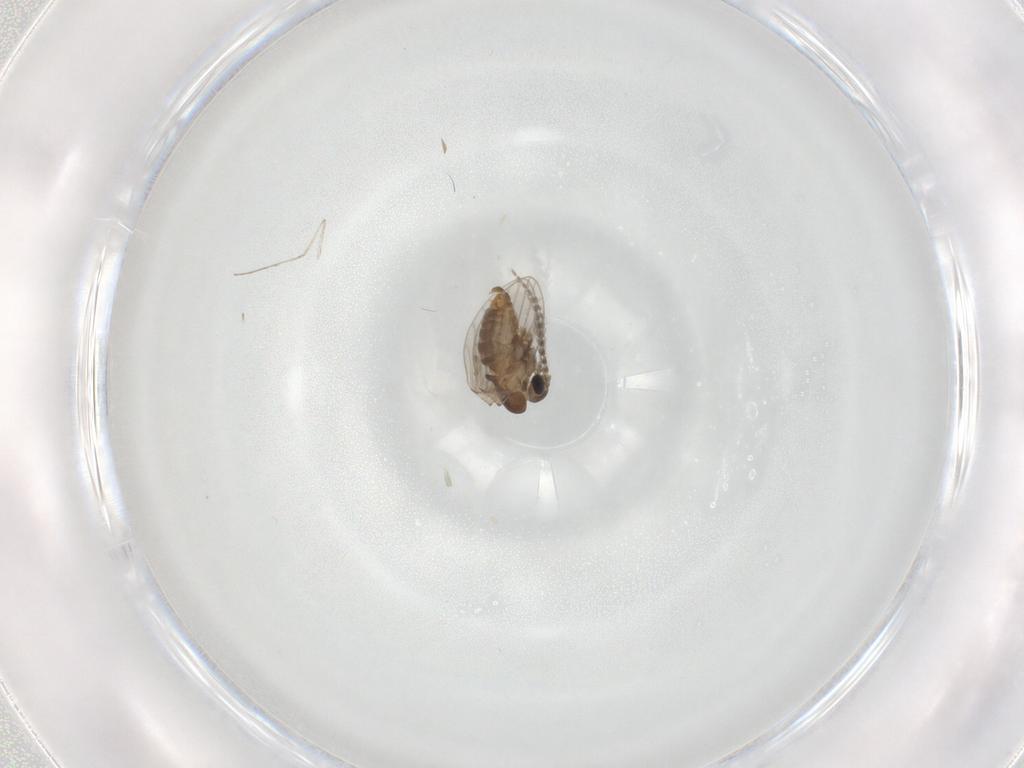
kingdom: Animalia
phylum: Arthropoda
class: Insecta
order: Diptera
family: Cecidomyiidae
